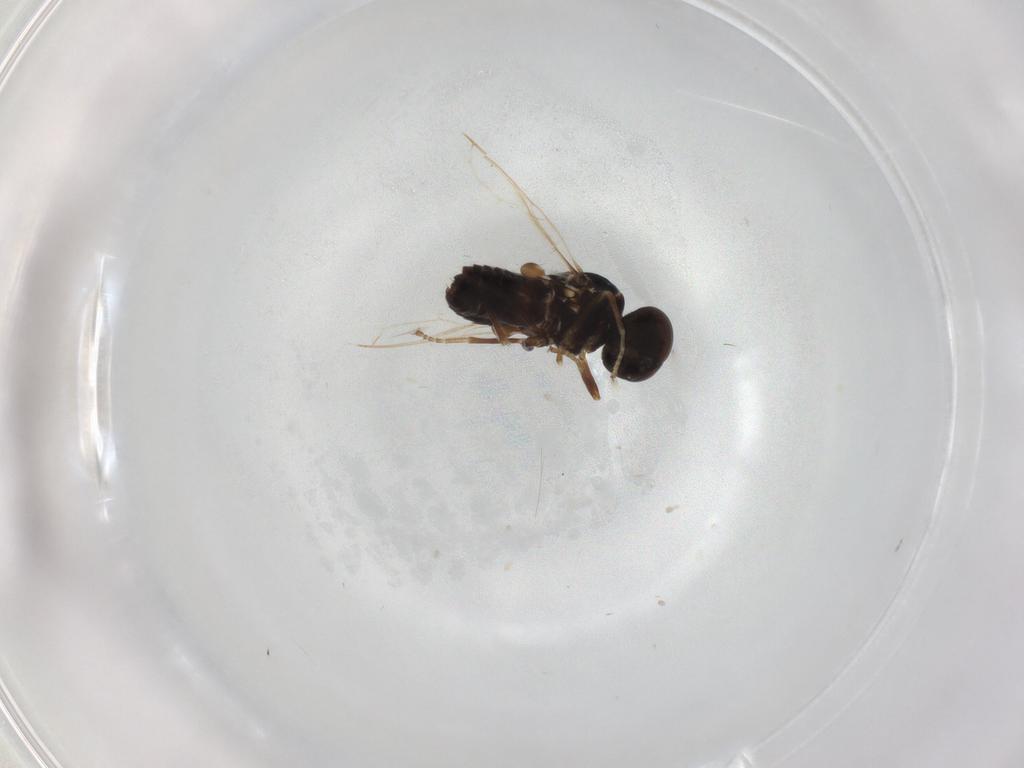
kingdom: Animalia
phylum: Arthropoda
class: Insecta
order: Diptera
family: Scenopinidae
